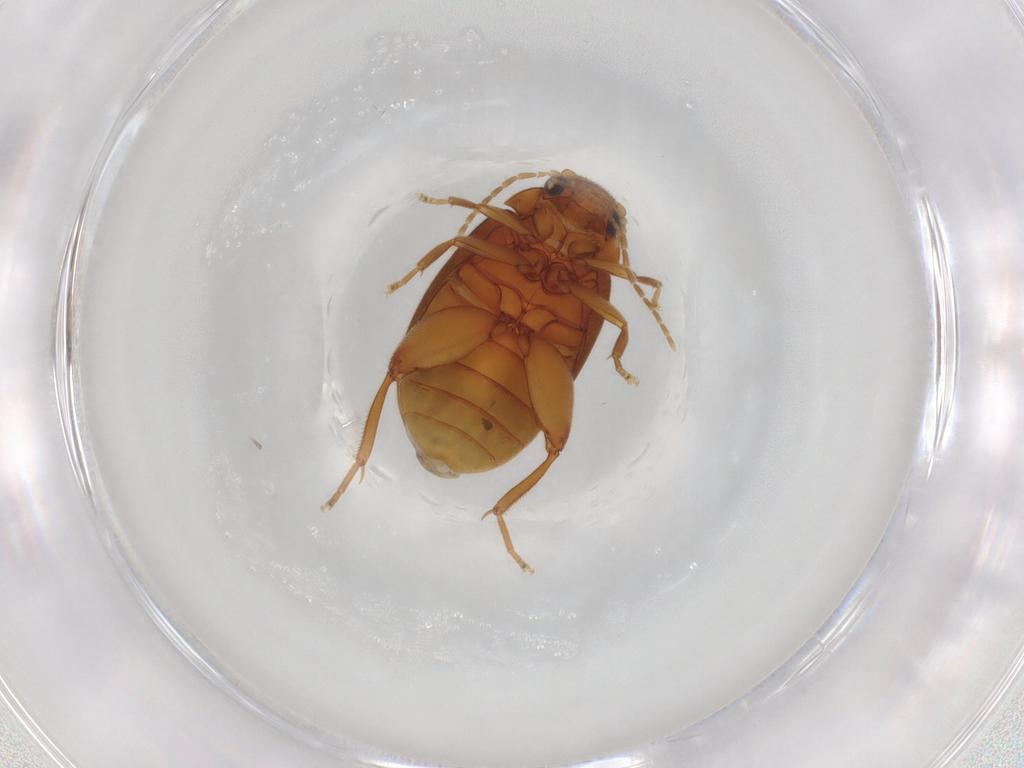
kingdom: Animalia
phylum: Arthropoda
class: Insecta
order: Coleoptera
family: Scirtidae
